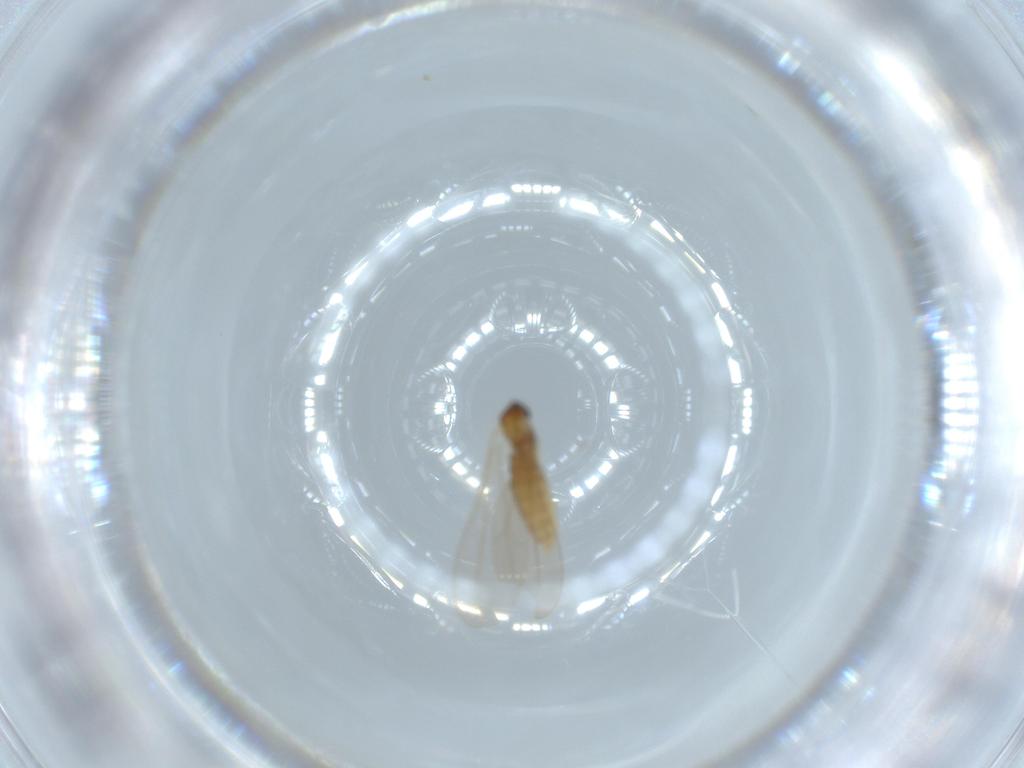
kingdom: Animalia
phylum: Arthropoda
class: Insecta
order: Diptera
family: Cecidomyiidae
